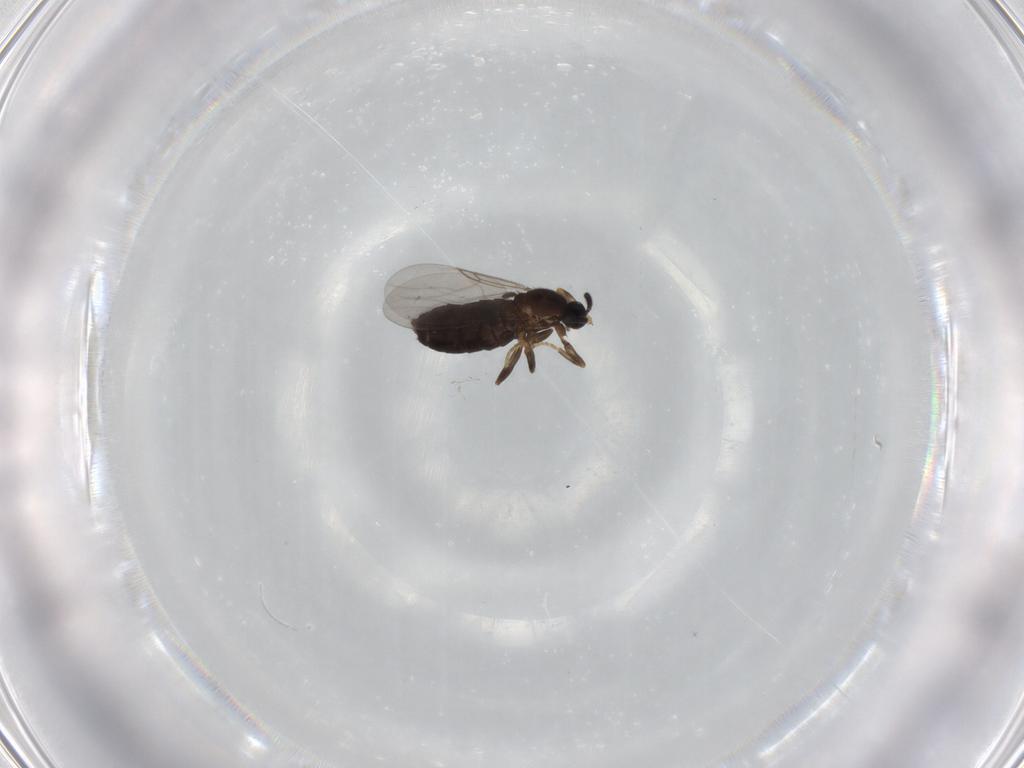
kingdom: Animalia
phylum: Arthropoda
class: Insecta
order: Diptera
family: Scatopsidae
